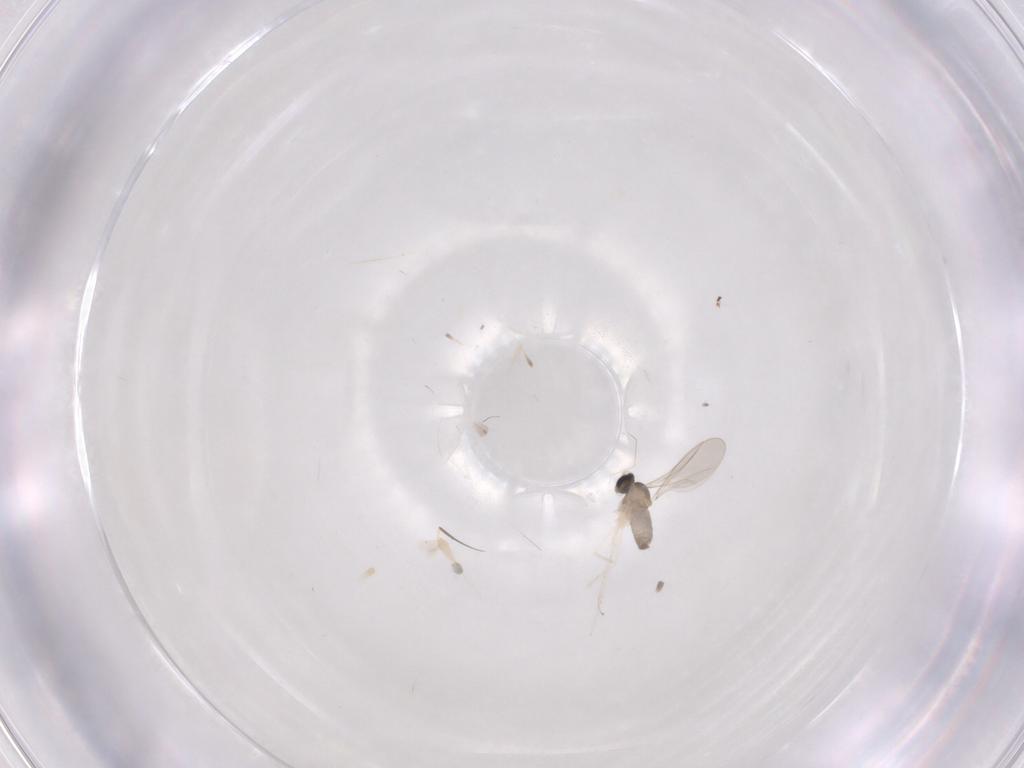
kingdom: Animalia
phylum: Arthropoda
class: Insecta
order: Diptera
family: Cecidomyiidae
